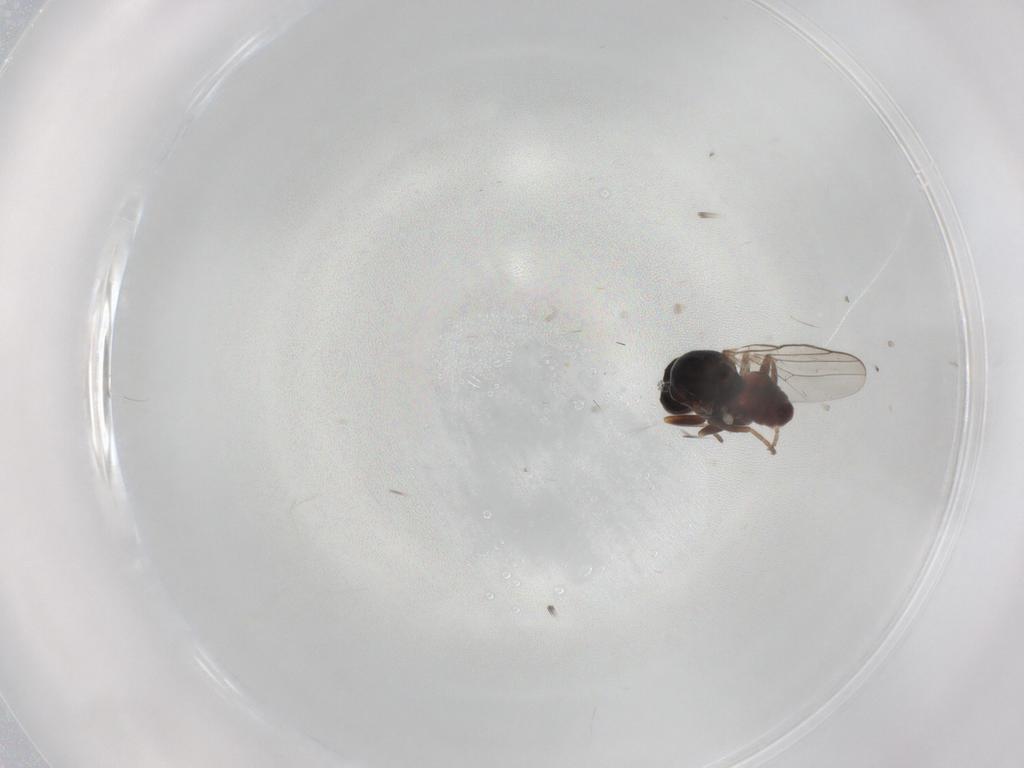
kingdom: Animalia
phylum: Arthropoda
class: Insecta
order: Diptera
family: Chloropidae
